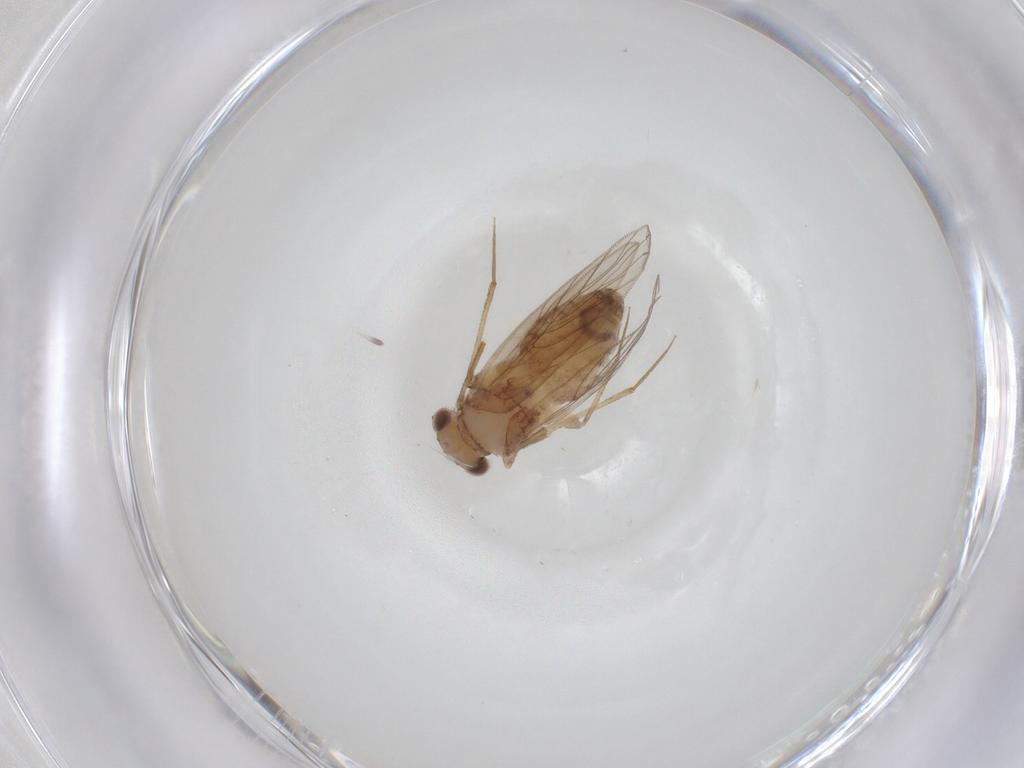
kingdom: Animalia
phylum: Arthropoda
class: Insecta
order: Psocodea
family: Lepidopsocidae
